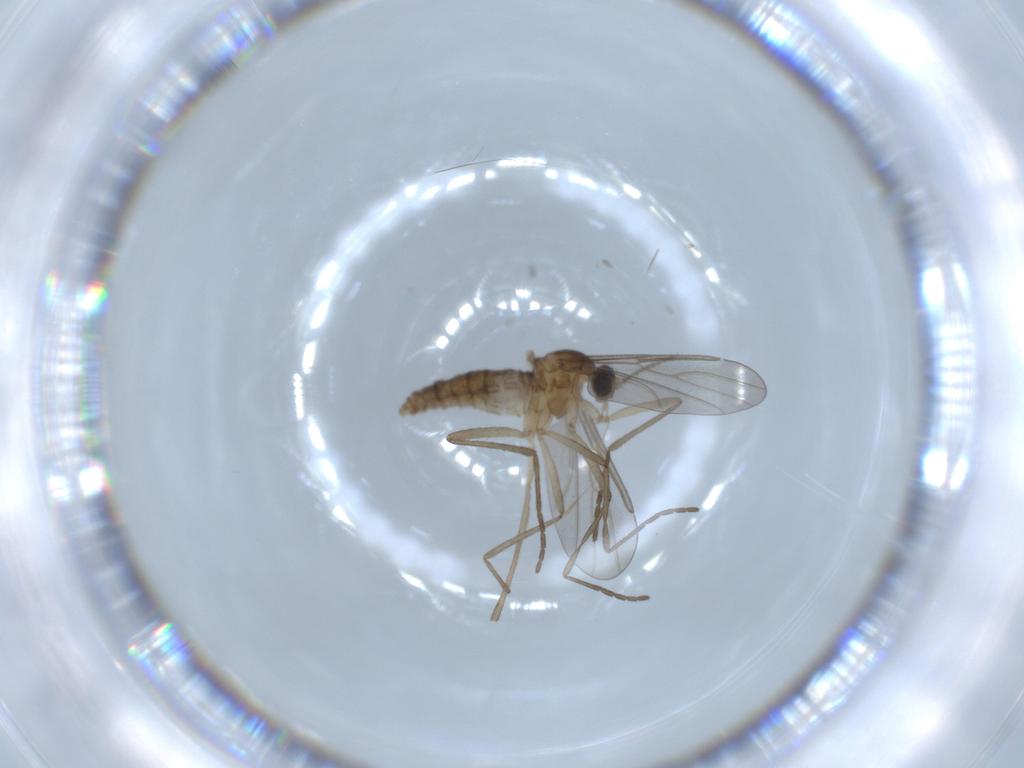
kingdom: Animalia
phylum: Arthropoda
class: Insecta
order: Diptera
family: Cecidomyiidae
